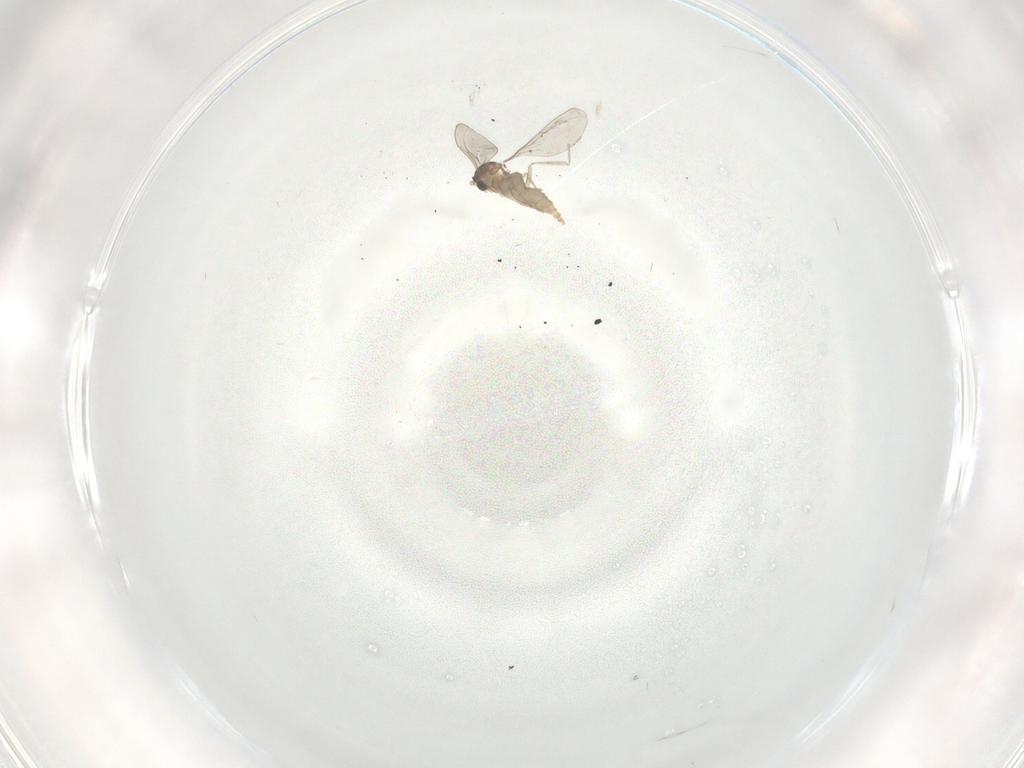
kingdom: Animalia
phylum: Arthropoda
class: Insecta
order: Diptera
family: Cecidomyiidae
